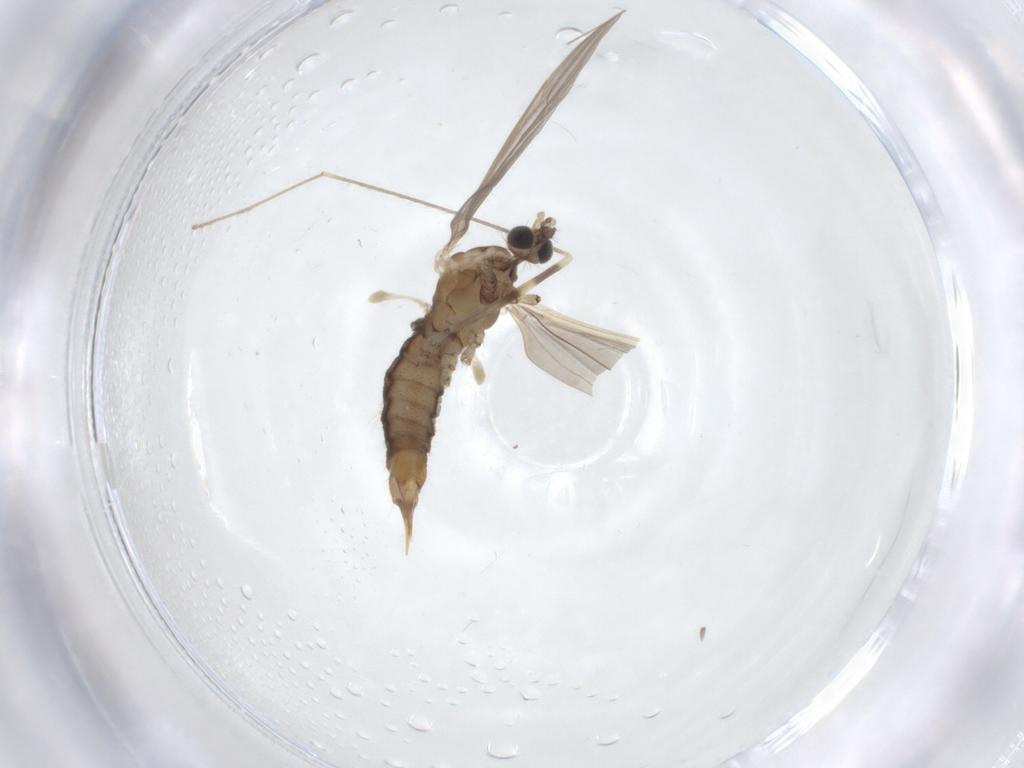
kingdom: Animalia
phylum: Arthropoda
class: Insecta
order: Diptera
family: Limoniidae
